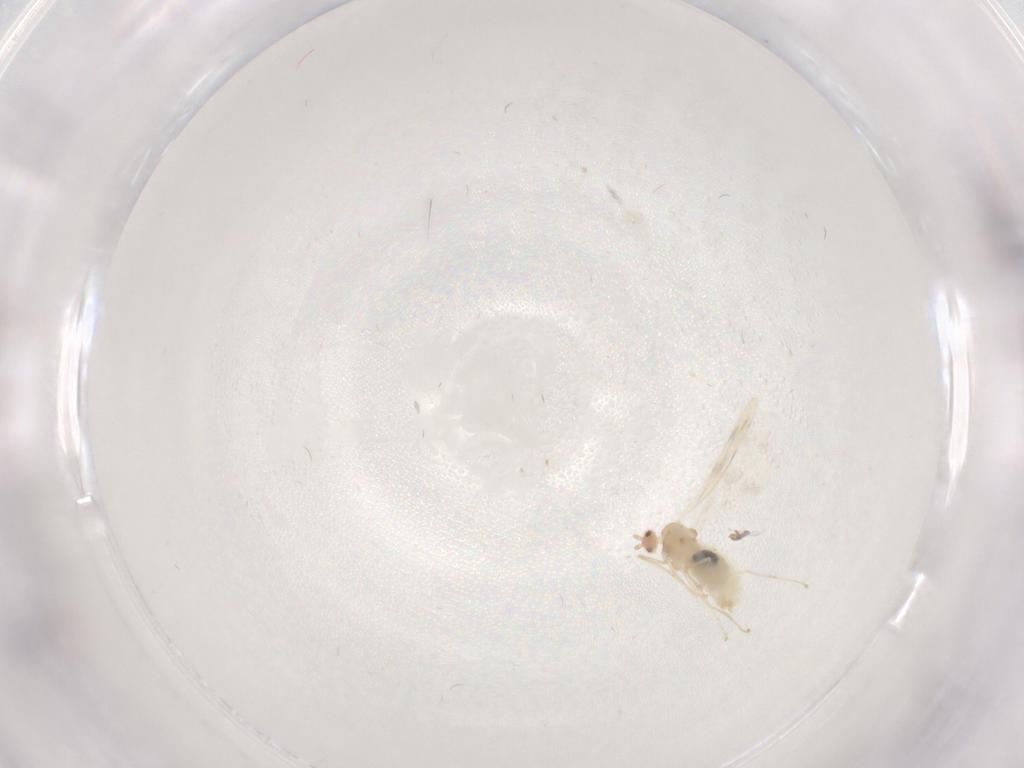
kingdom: Animalia
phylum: Arthropoda
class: Insecta
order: Diptera
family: Cecidomyiidae
